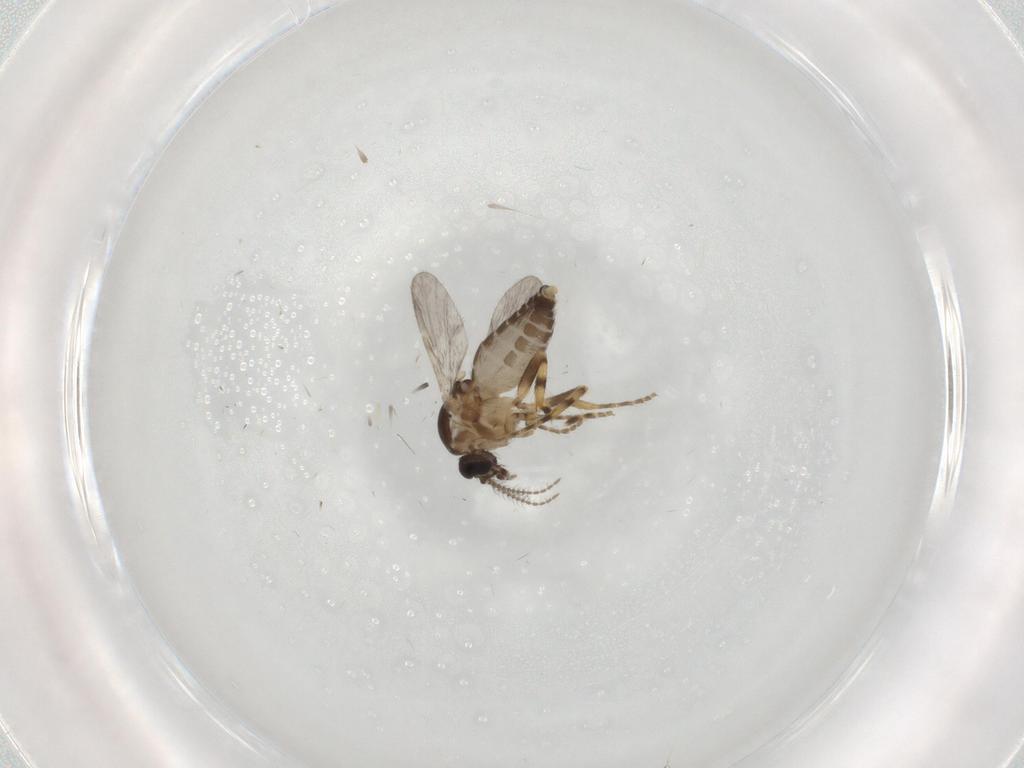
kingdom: Animalia
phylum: Arthropoda
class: Insecta
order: Diptera
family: Ceratopogonidae
